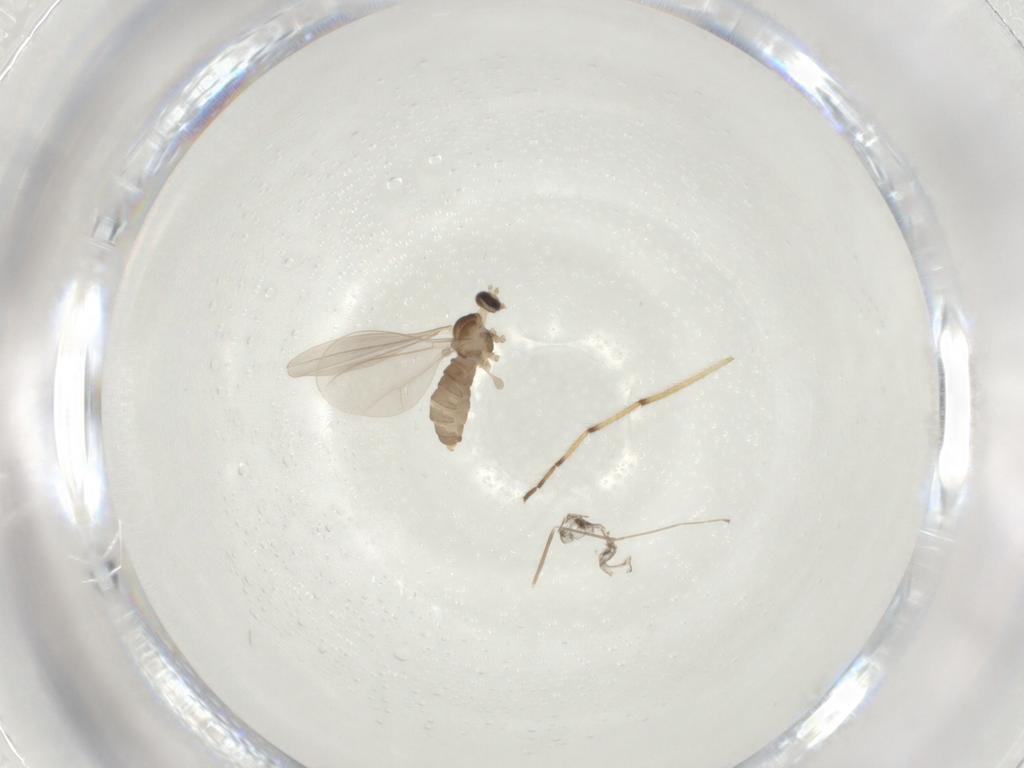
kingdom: Animalia
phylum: Arthropoda
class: Insecta
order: Diptera
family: Cecidomyiidae
